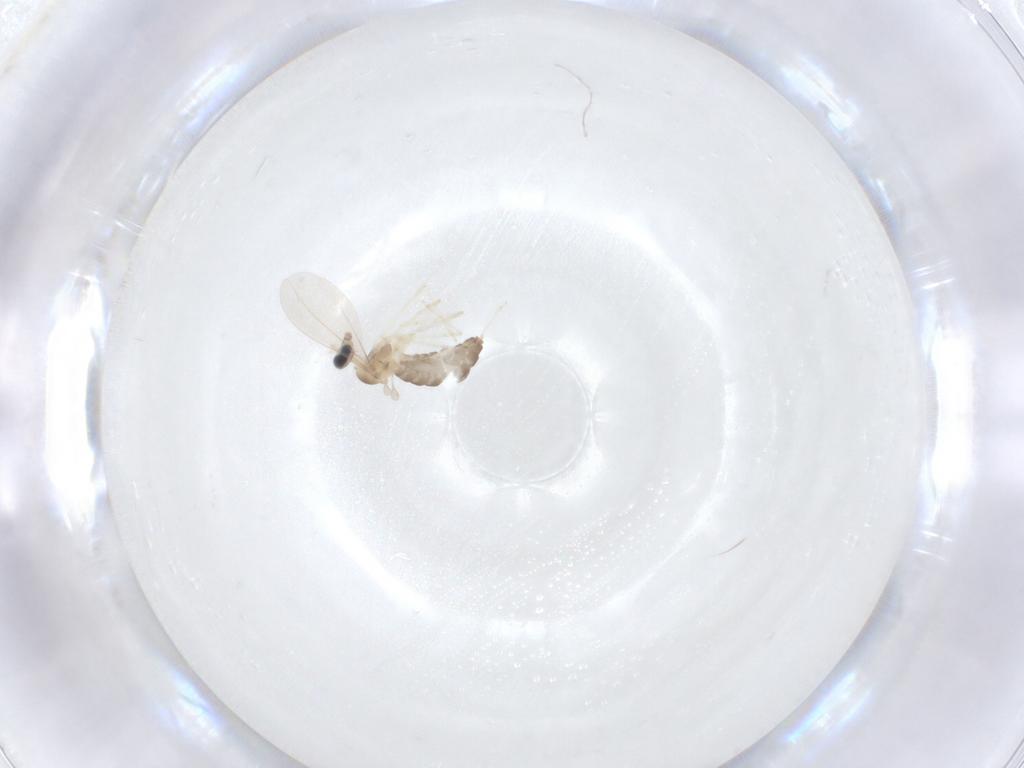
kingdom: Animalia
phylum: Arthropoda
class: Insecta
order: Diptera
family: Cecidomyiidae
